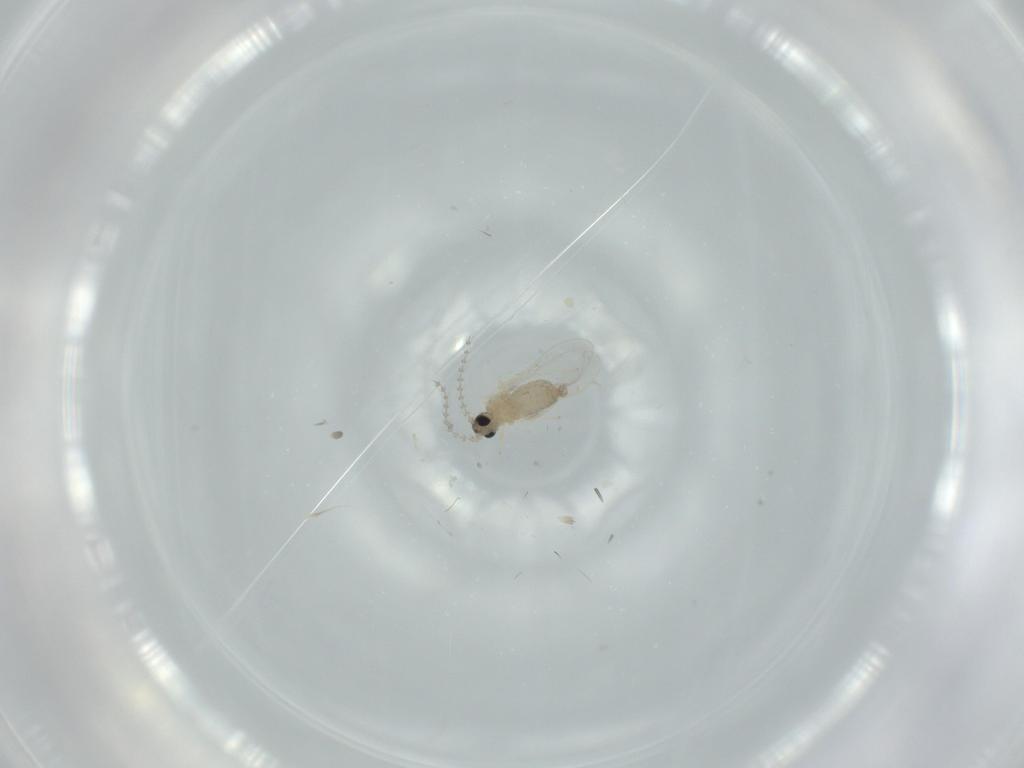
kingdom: Animalia
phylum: Arthropoda
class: Insecta
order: Diptera
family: Cecidomyiidae
